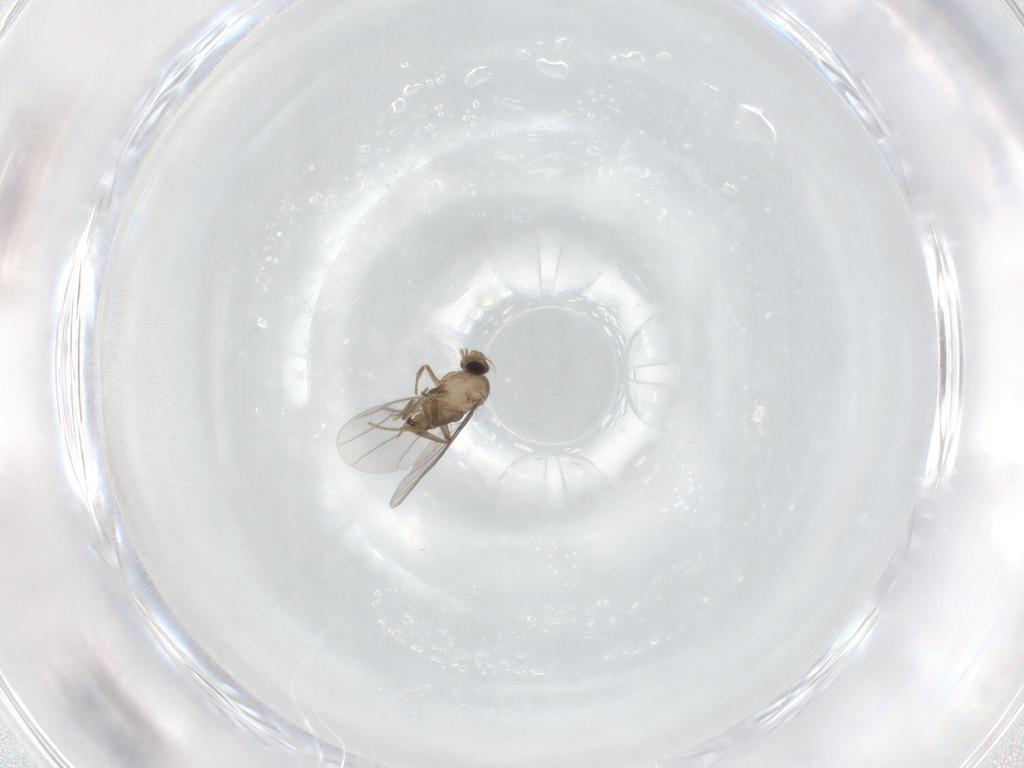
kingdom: Animalia
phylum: Arthropoda
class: Insecta
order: Diptera
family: Phoridae
